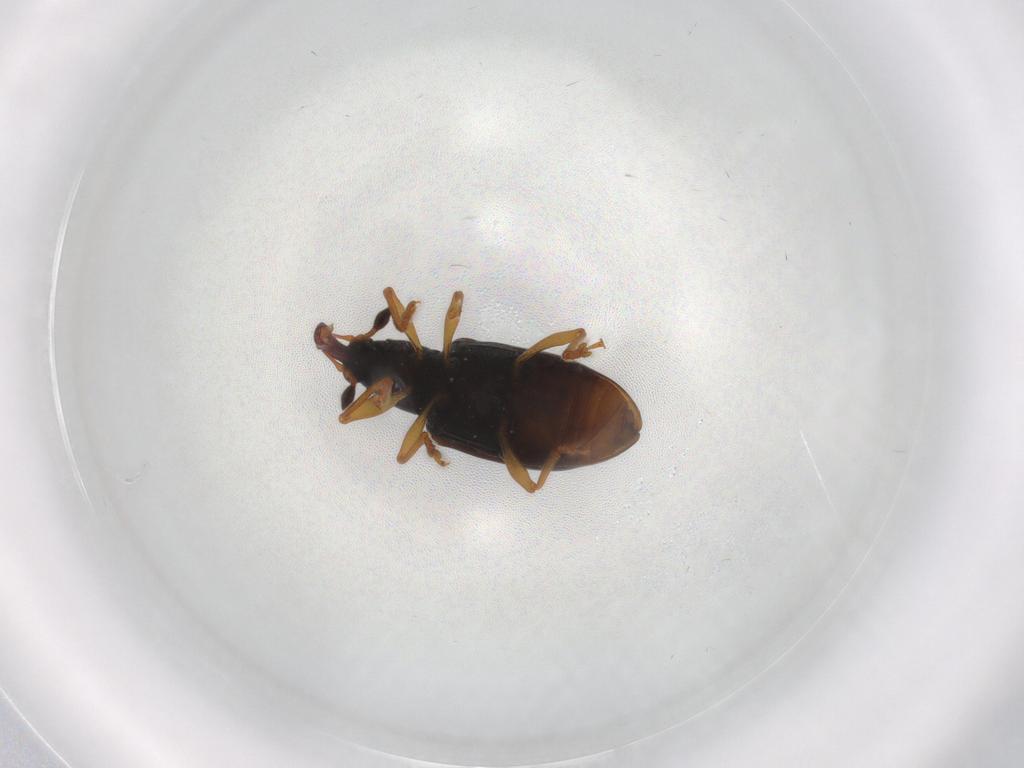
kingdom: Animalia
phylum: Arthropoda
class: Insecta
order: Coleoptera
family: Curculionidae
